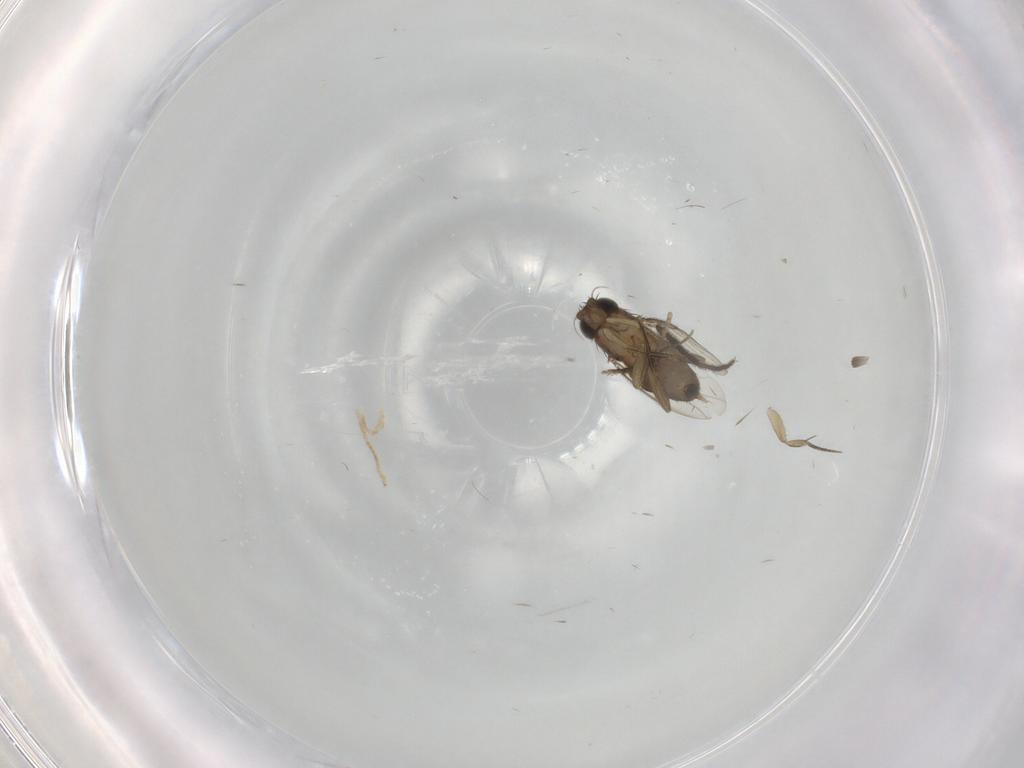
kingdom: Animalia
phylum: Arthropoda
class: Insecta
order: Diptera
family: Phoridae
